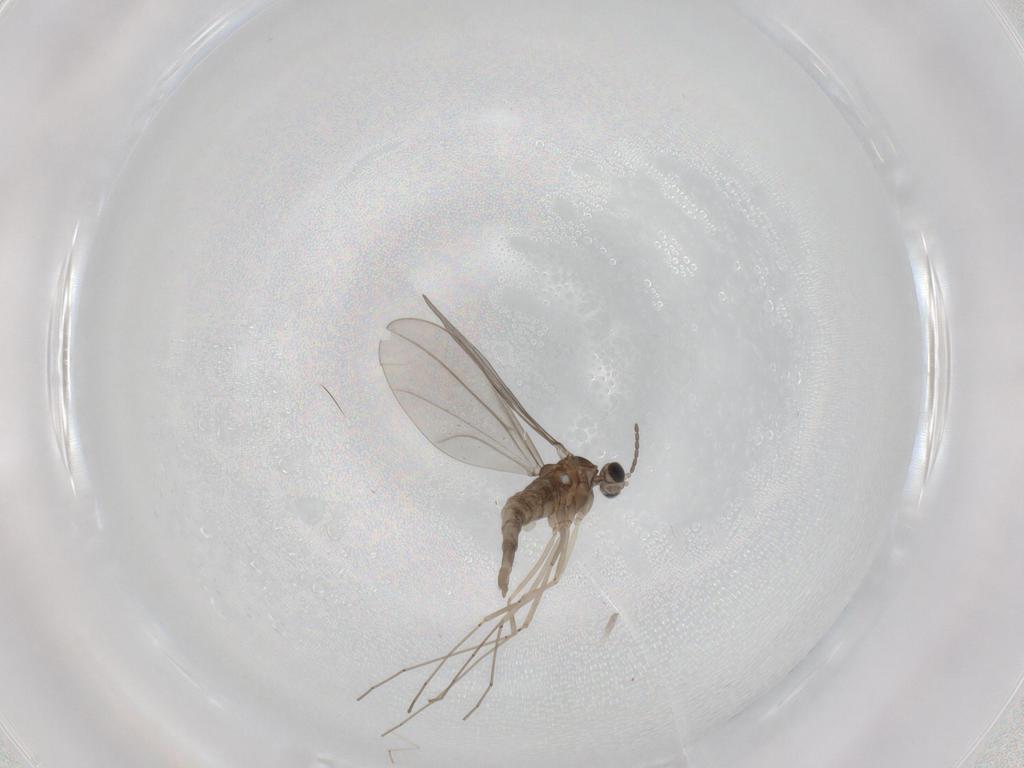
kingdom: Animalia
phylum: Arthropoda
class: Insecta
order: Diptera
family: Cecidomyiidae
